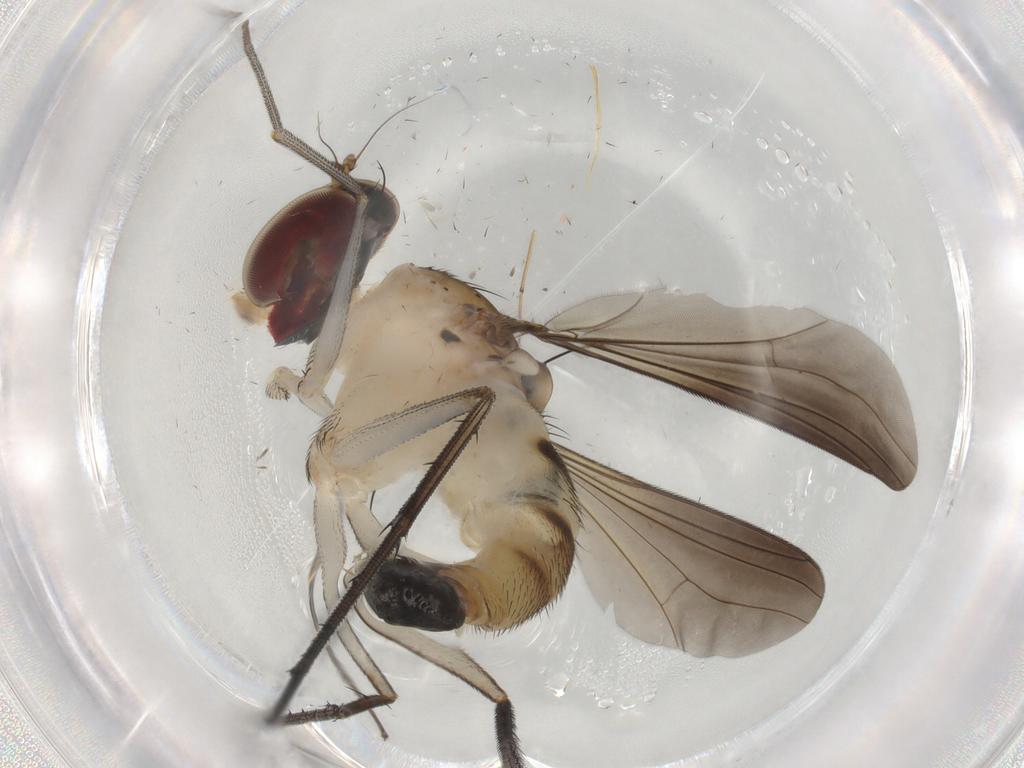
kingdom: Animalia
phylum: Arthropoda
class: Insecta
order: Diptera
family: Dolichopodidae
